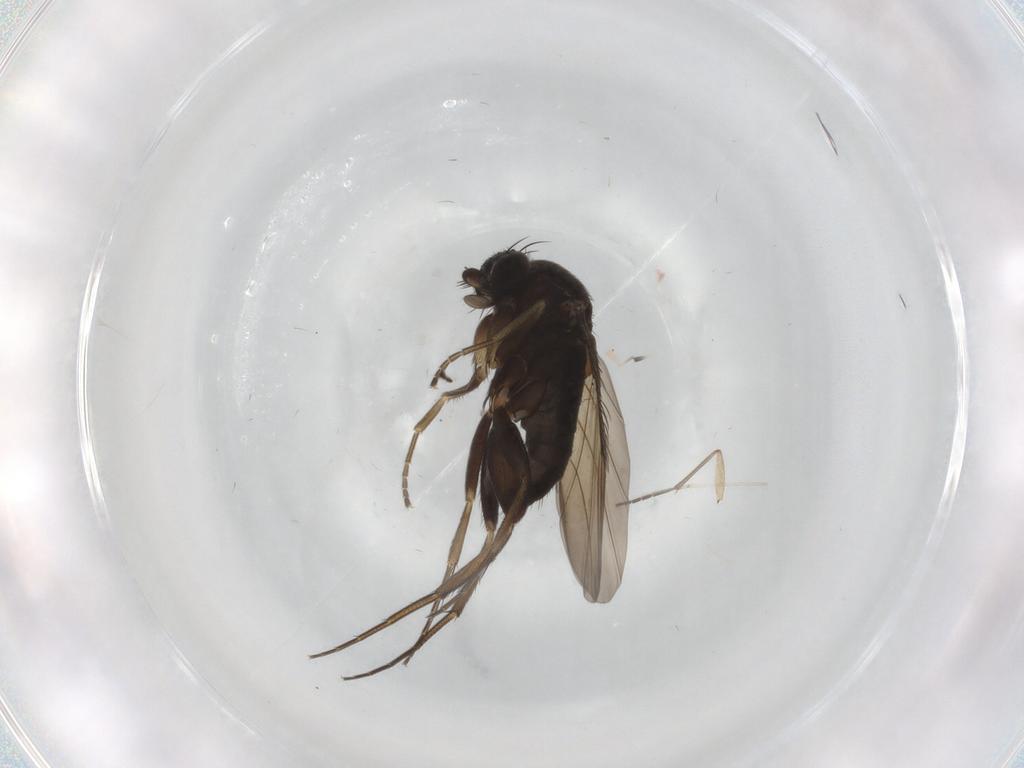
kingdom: Animalia
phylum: Arthropoda
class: Insecta
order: Diptera
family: Phoridae
